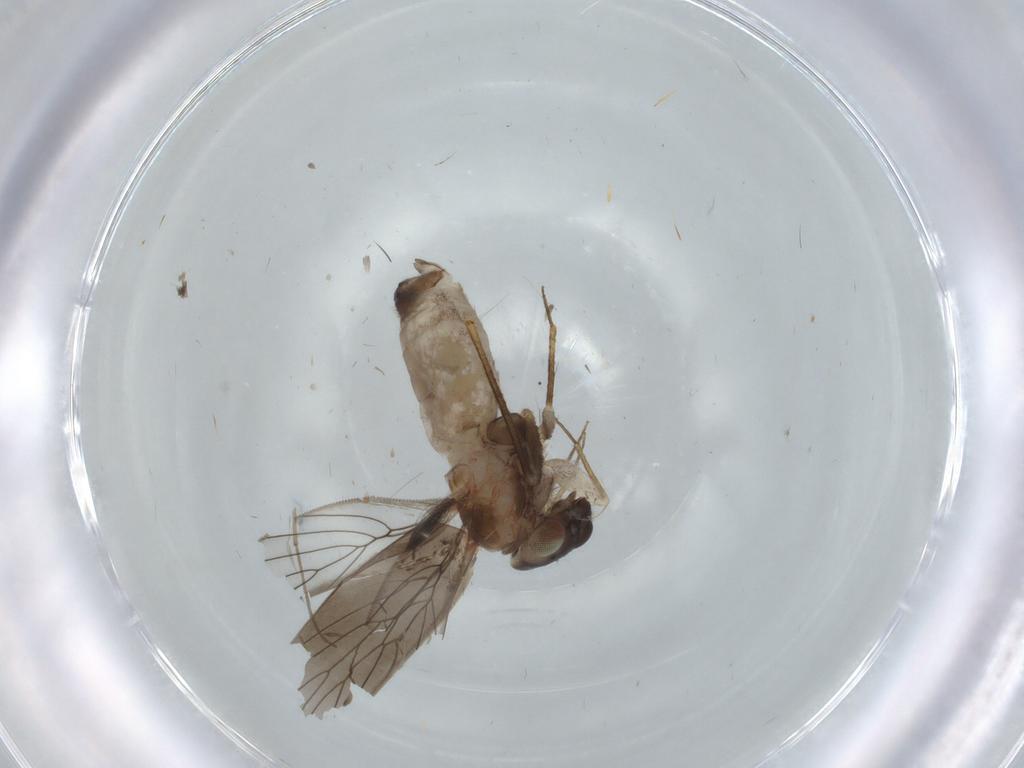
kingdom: Animalia
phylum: Arthropoda
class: Insecta
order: Psocodea
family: Lepidopsocidae
